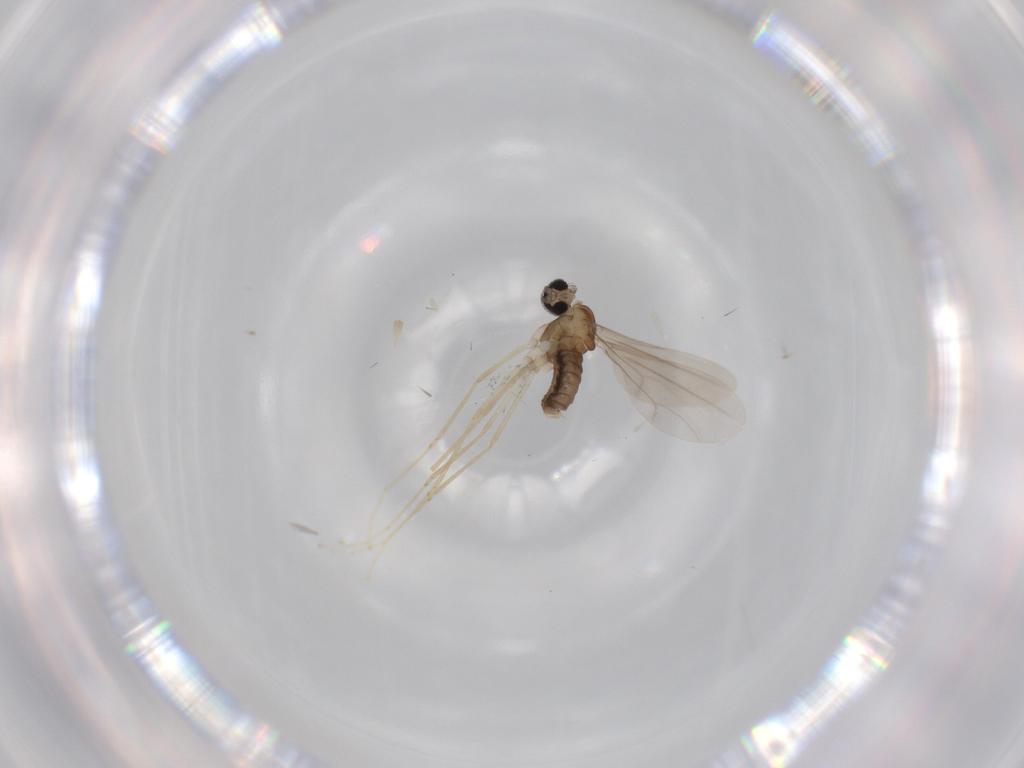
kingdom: Animalia
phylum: Arthropoda
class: Insecta
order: Diptera
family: Cecidomyiidae
